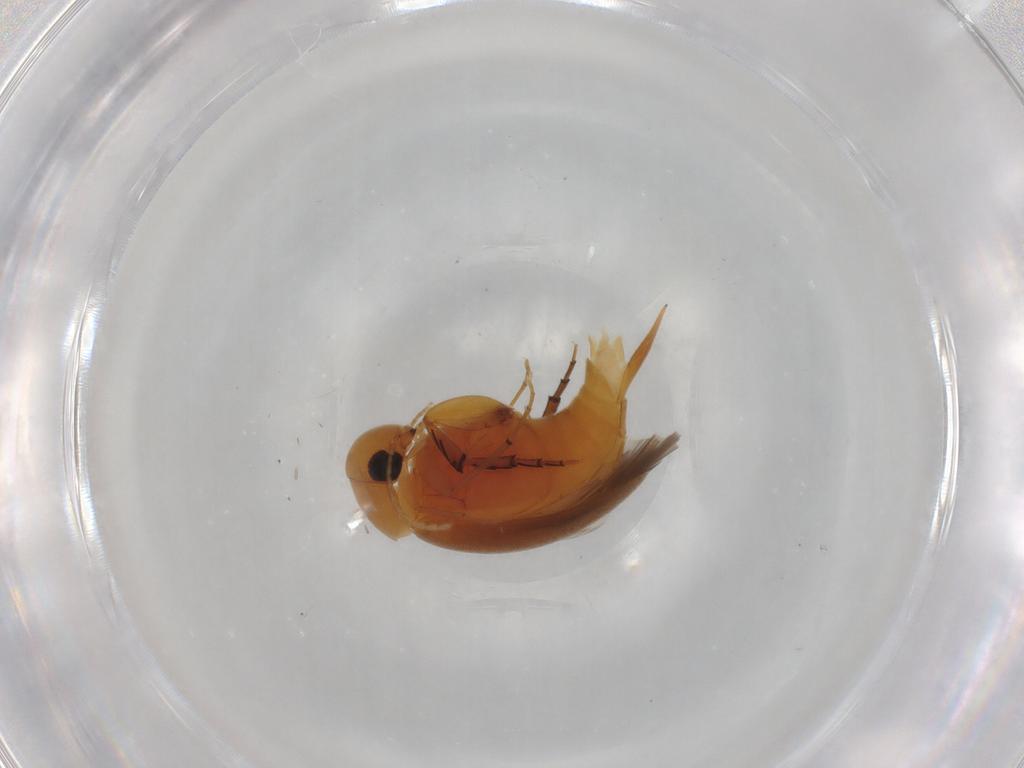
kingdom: Animalia
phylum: Arthropoda
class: Insecta
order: Coleoptera
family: Mordellidae
